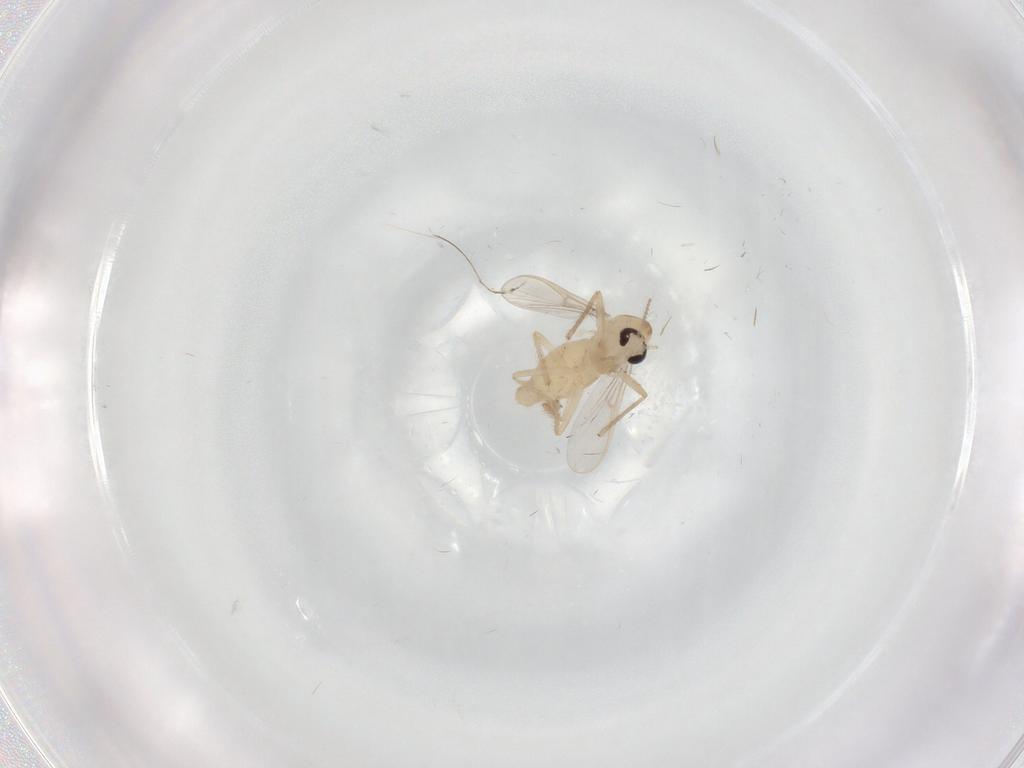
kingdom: Animalia
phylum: Arthropoda
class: Insecta
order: Diptera
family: Chironomidae
